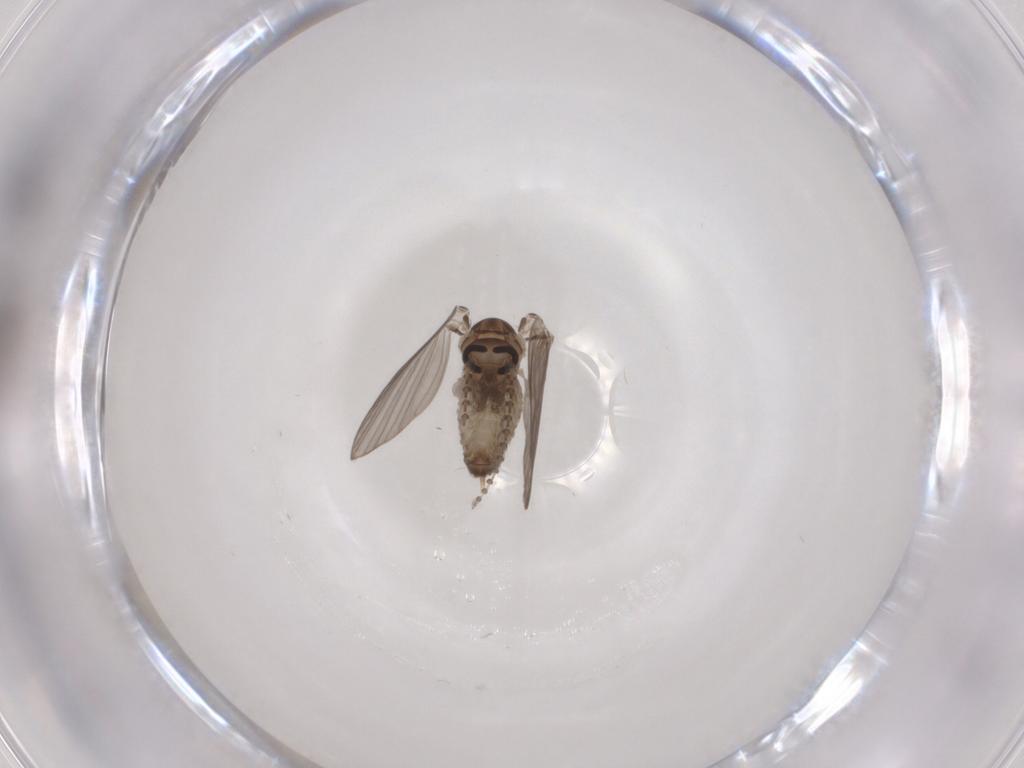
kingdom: Animalia
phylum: Arthropoda
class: Insecta
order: Diptera
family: Psychodidae
